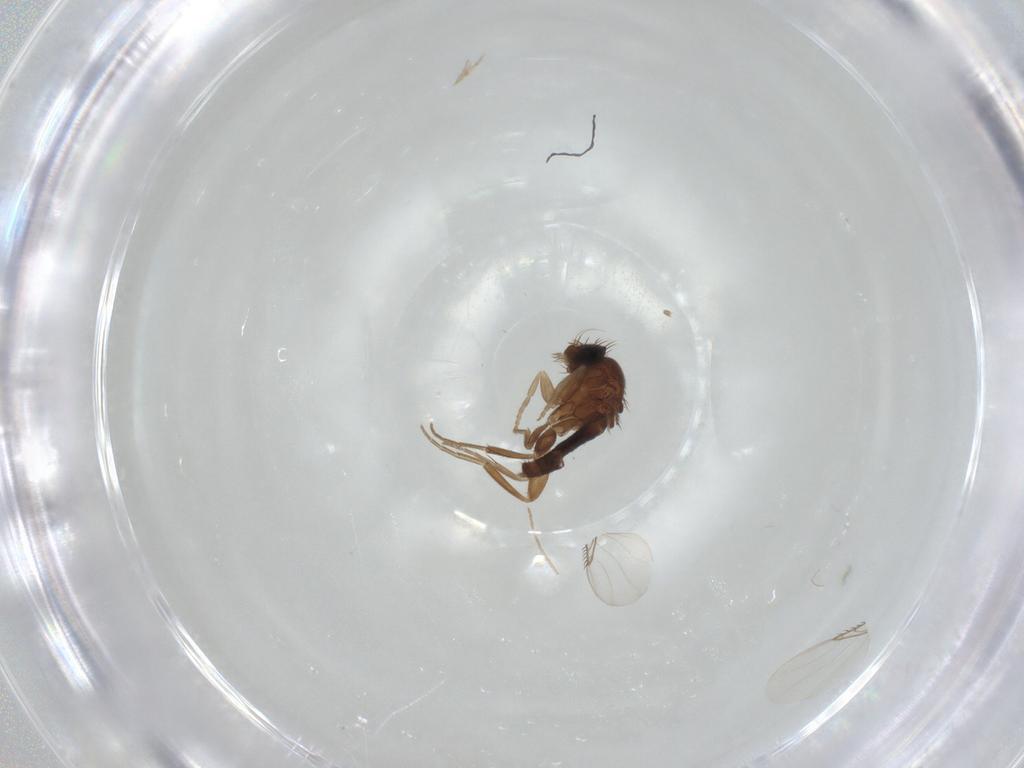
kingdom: Animalia
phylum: Arthropoda
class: Insecta
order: Diptera
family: Phoridae
